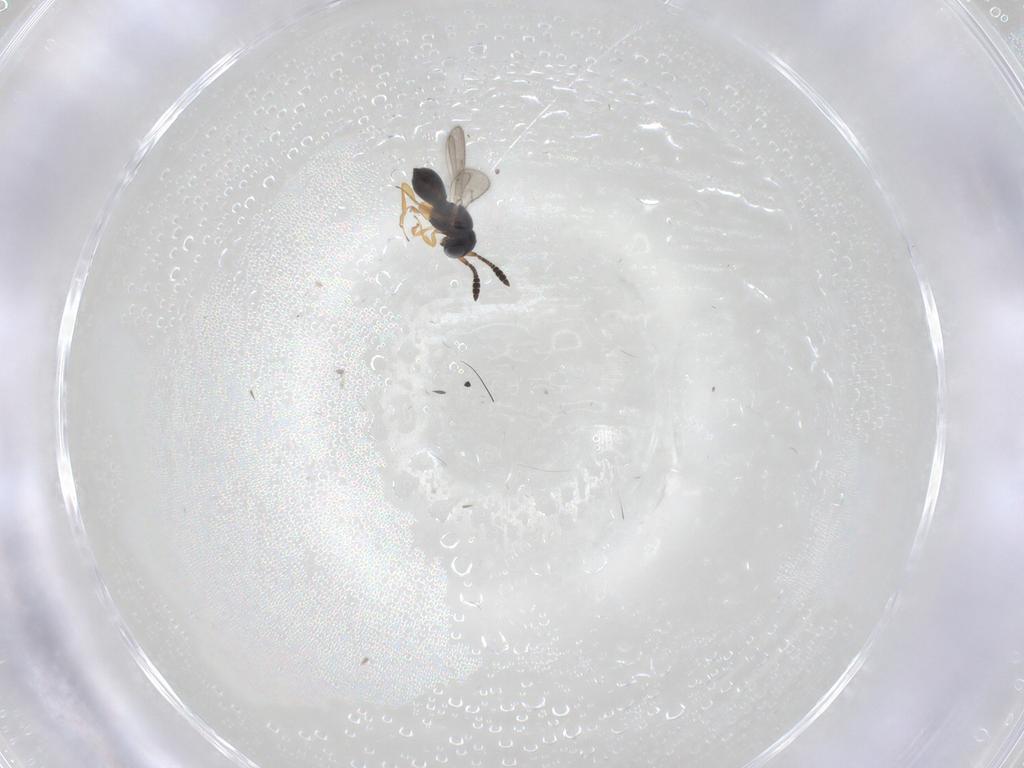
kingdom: Animalia
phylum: Arthropoda
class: Insecta
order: Hymenoptera
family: Scelionidae
